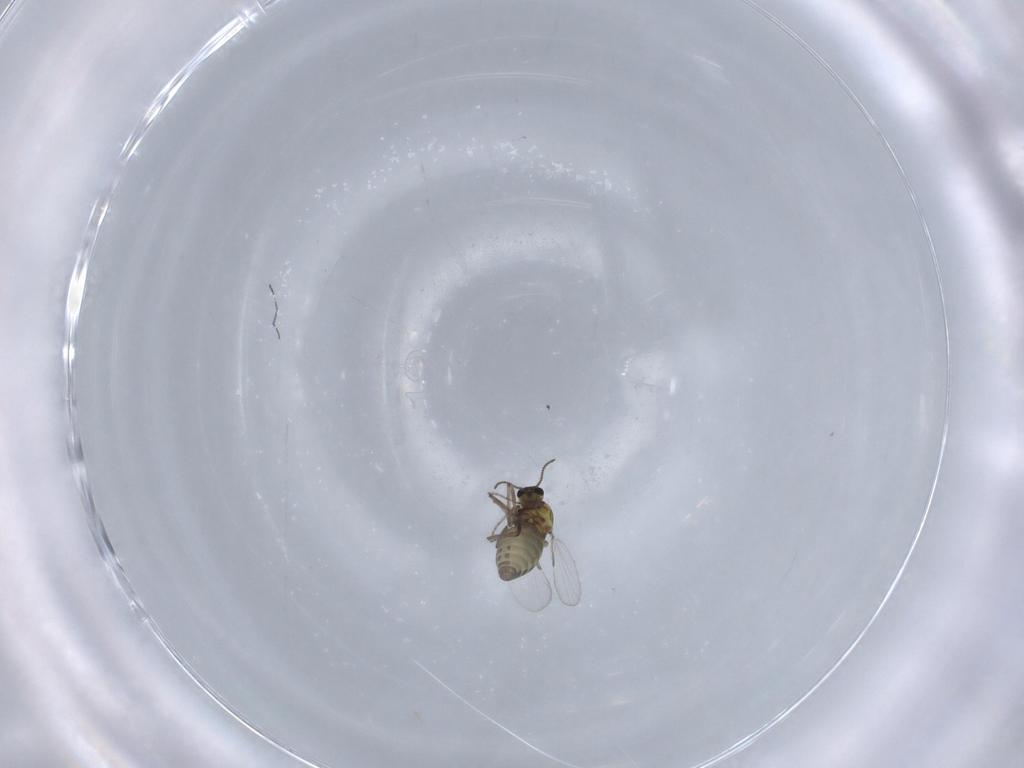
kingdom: Animalia
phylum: Arthropoda
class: Insecta
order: Diptera
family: Ceratopogonidae
